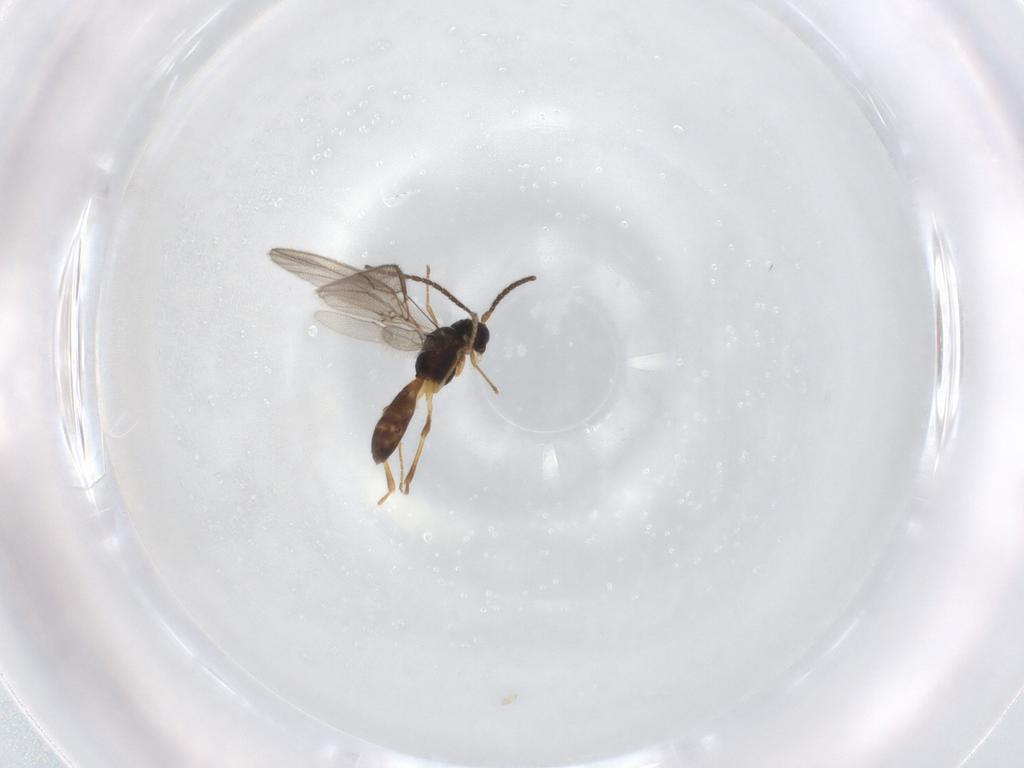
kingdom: Animalia
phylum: Arthropoda
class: Insecta
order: Hymenoptera
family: Braconidae
